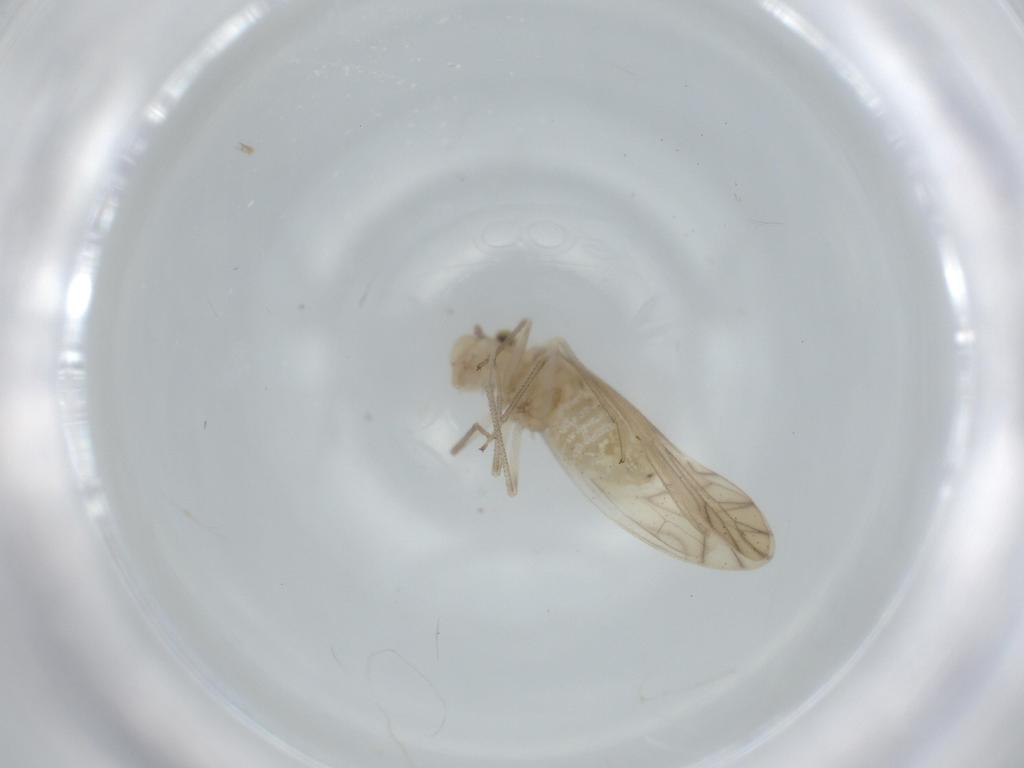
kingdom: Animalia
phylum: Arthropoda
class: Insecta
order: Psocodea
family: Caeciliusidae
